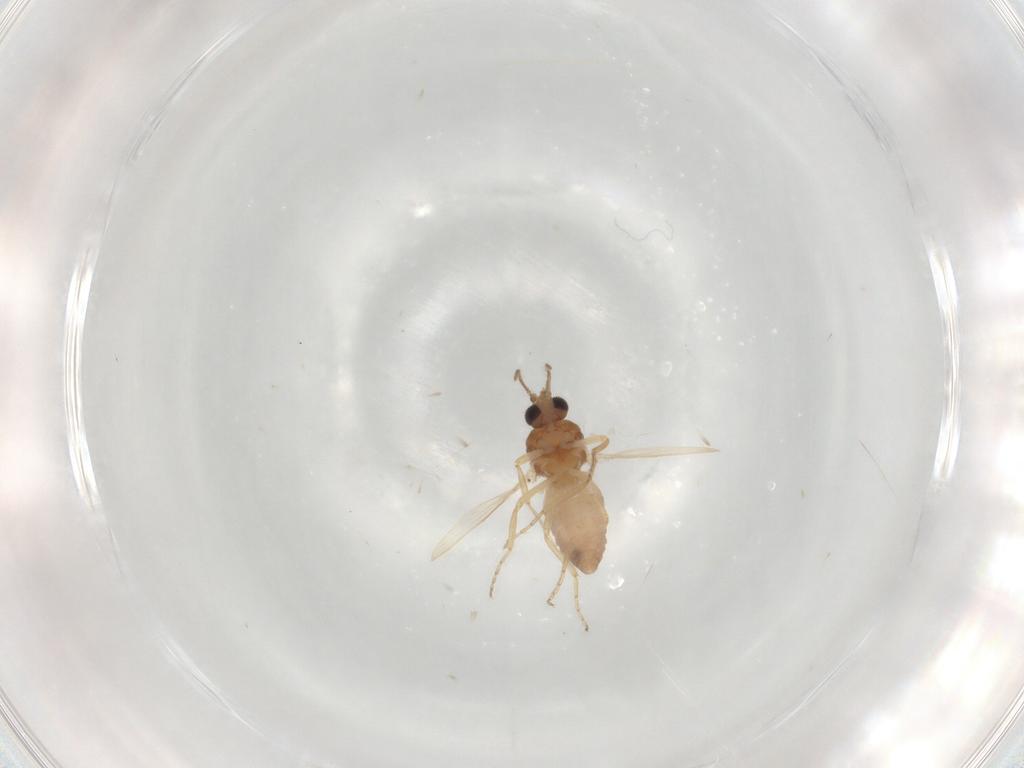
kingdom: Animalia
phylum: Arthropoda
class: Insecta
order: Diptera
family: Ceratopogonidae
